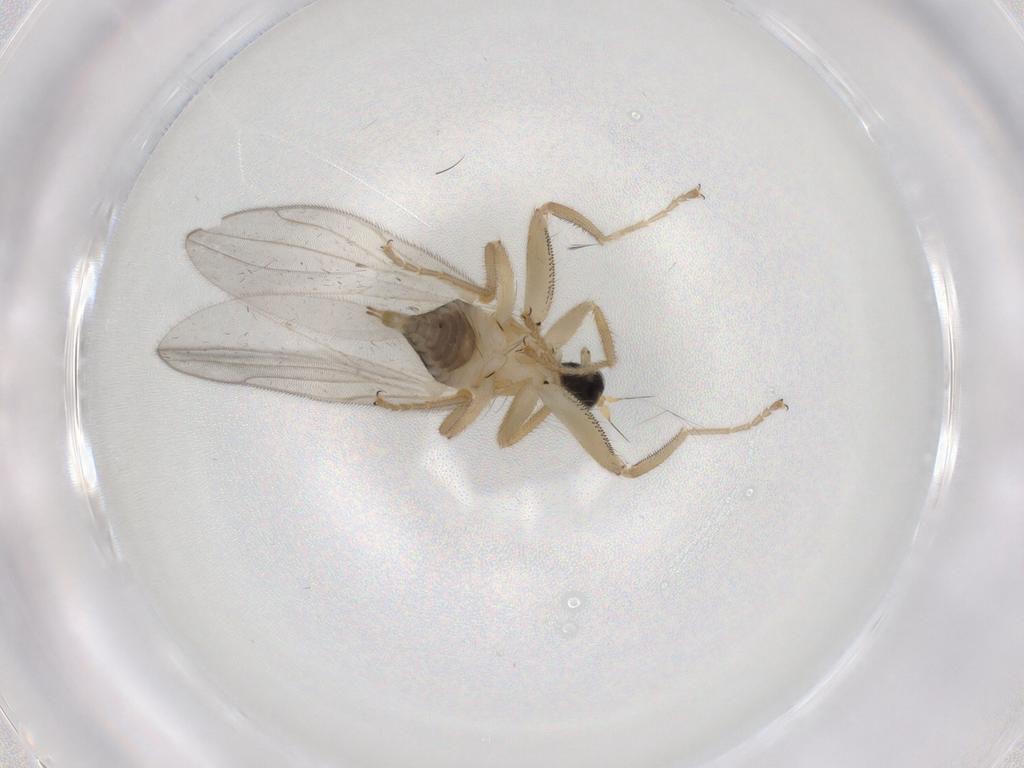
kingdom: Animalia
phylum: Arthropoda
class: Insecta
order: Diptera
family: Hybotidae
